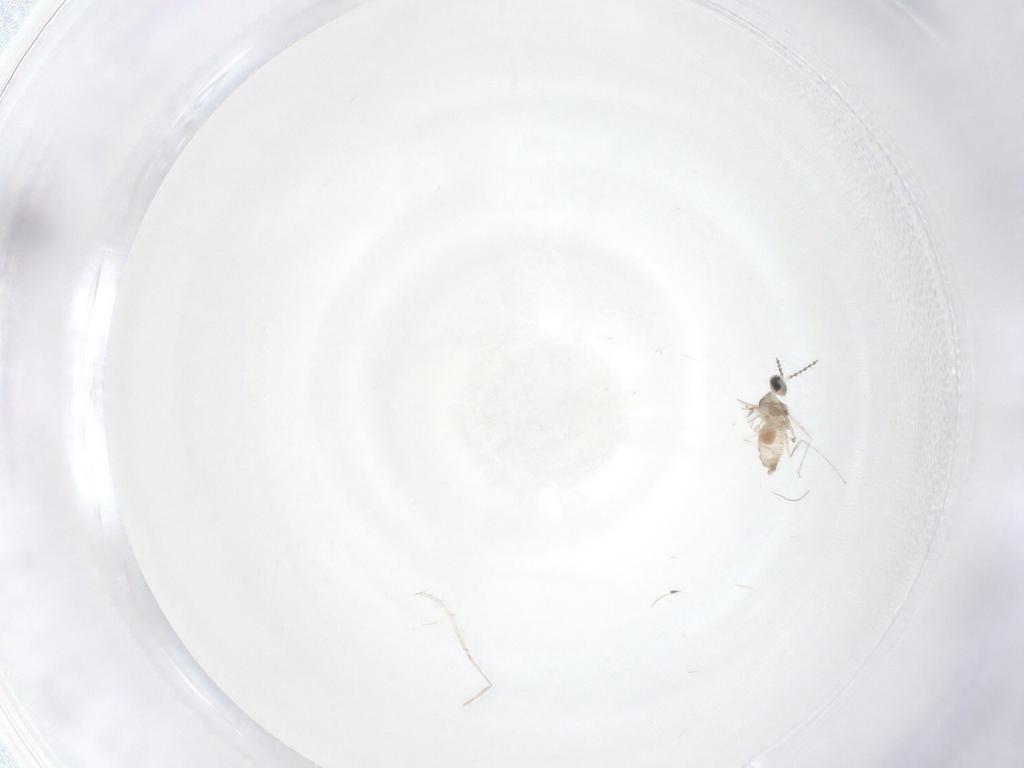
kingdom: Animalia
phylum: Arthropoda
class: Insecta
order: Diptera
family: Cecidomyiidae
